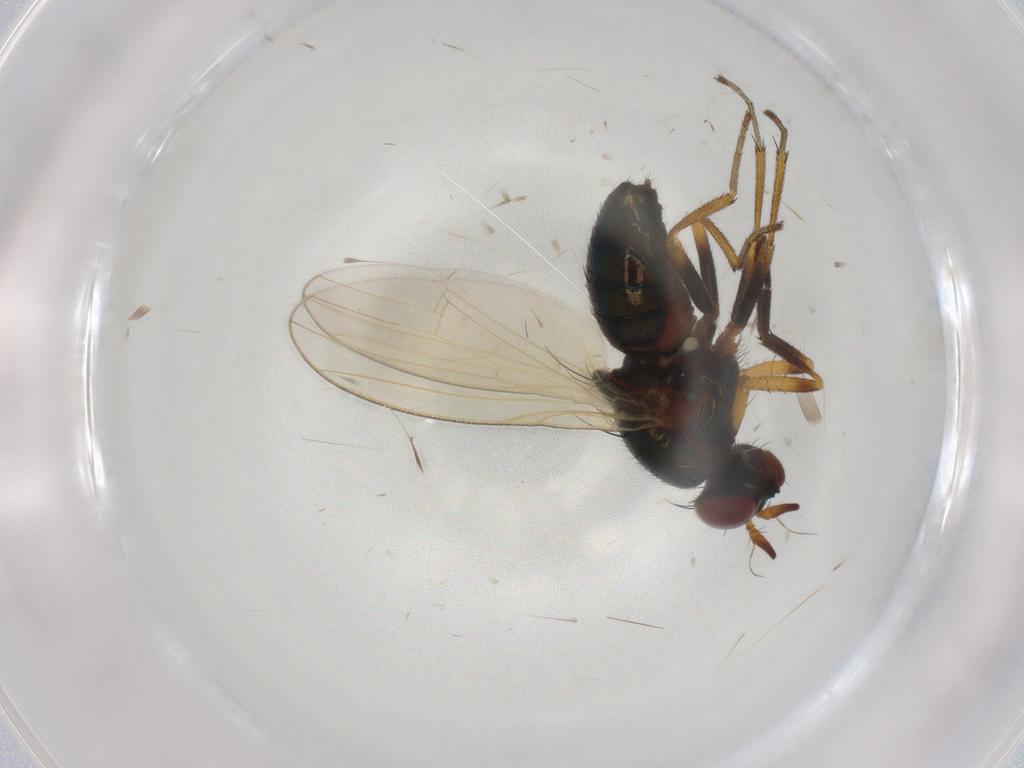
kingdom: Animalia
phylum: Arthropoda
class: Insecta
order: Diptera
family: Lauxaniidae
